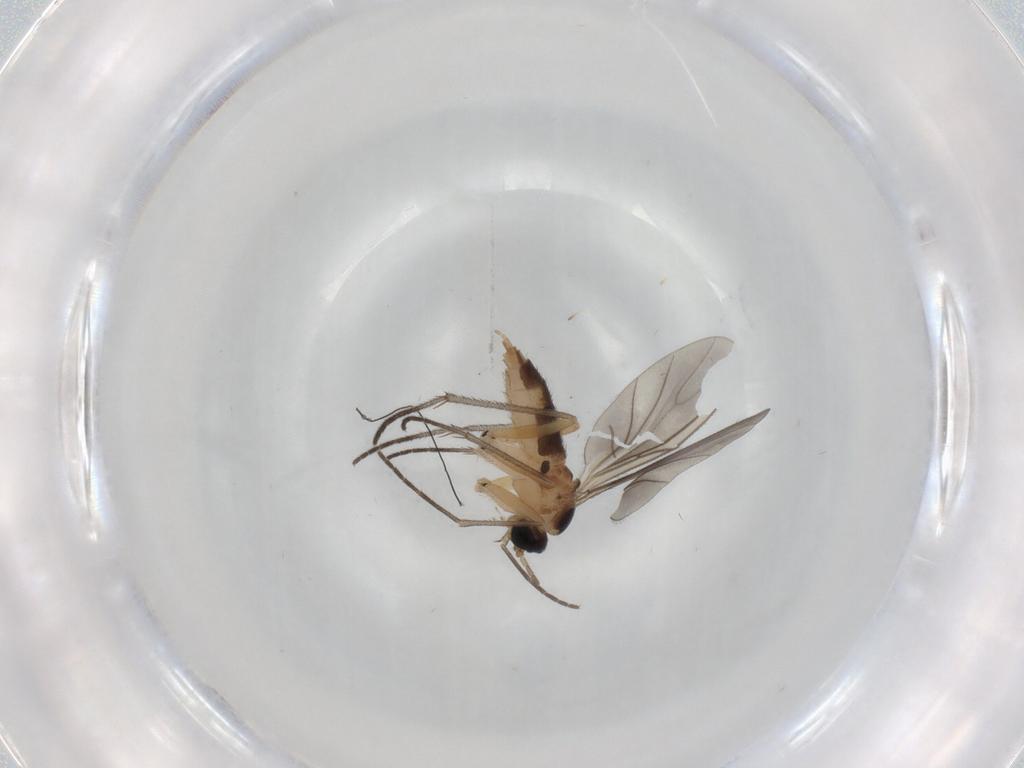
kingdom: Animalia
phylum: Arthropoda
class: Insecta
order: Diptera
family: Sciaridae
